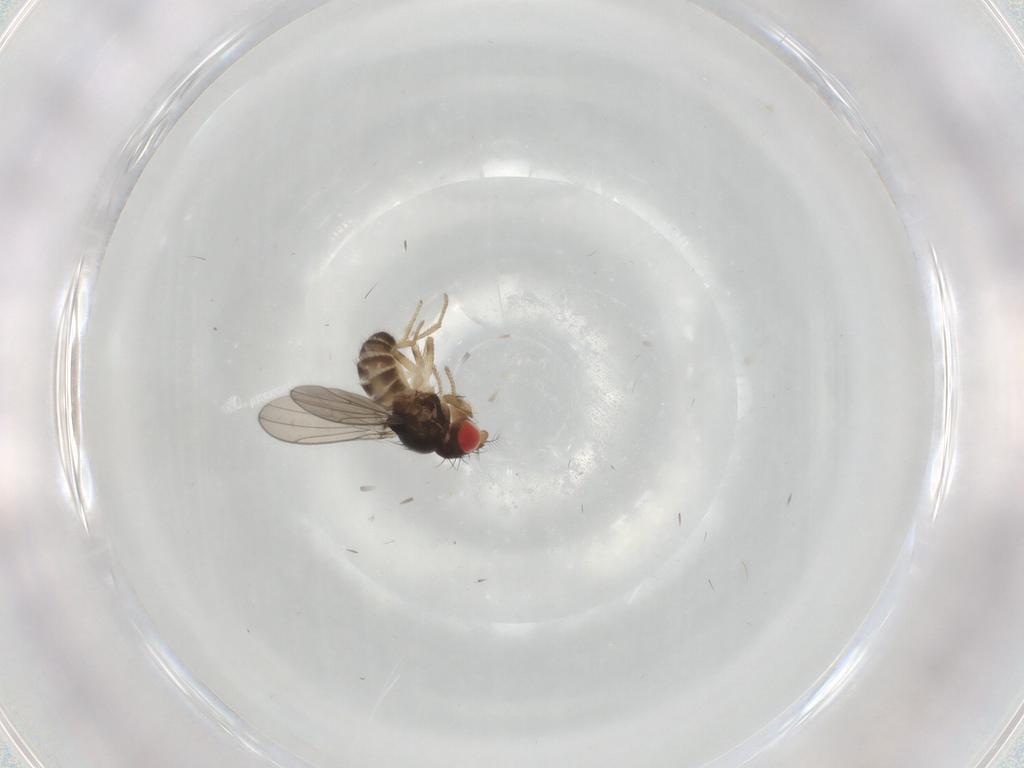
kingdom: Animalia
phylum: Arthropoda
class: Insecta
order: Diptera
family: Drosophilidae
